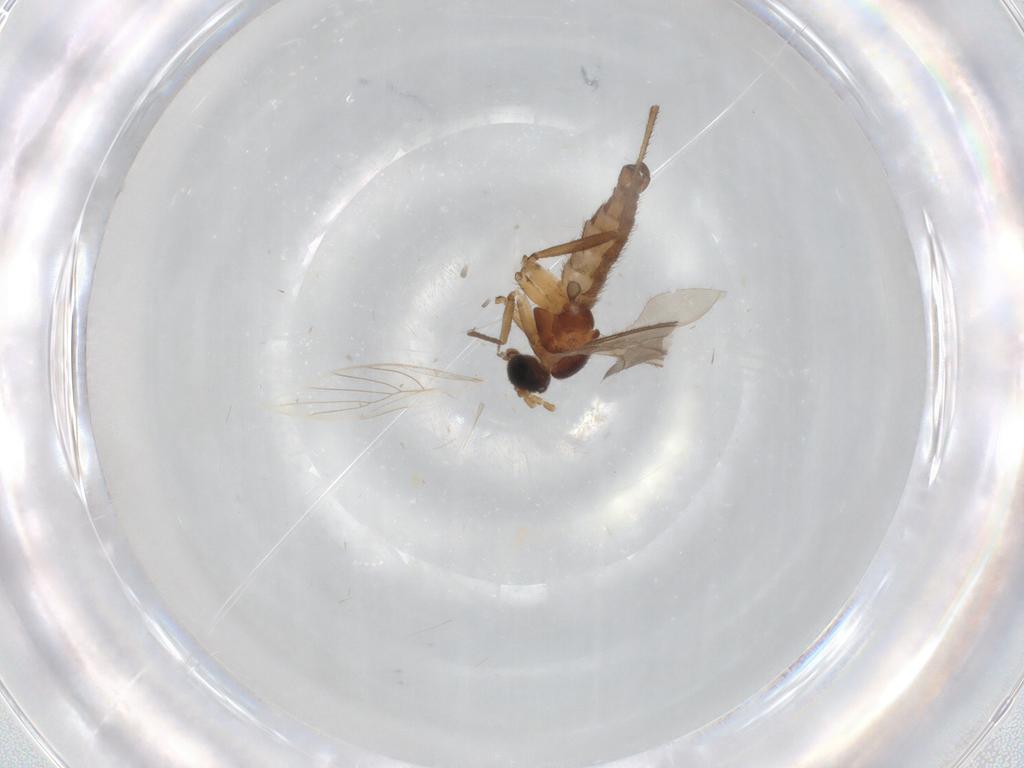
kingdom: Animalia
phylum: Arthropoda
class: Insecta
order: Diptera
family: Sciaridae
